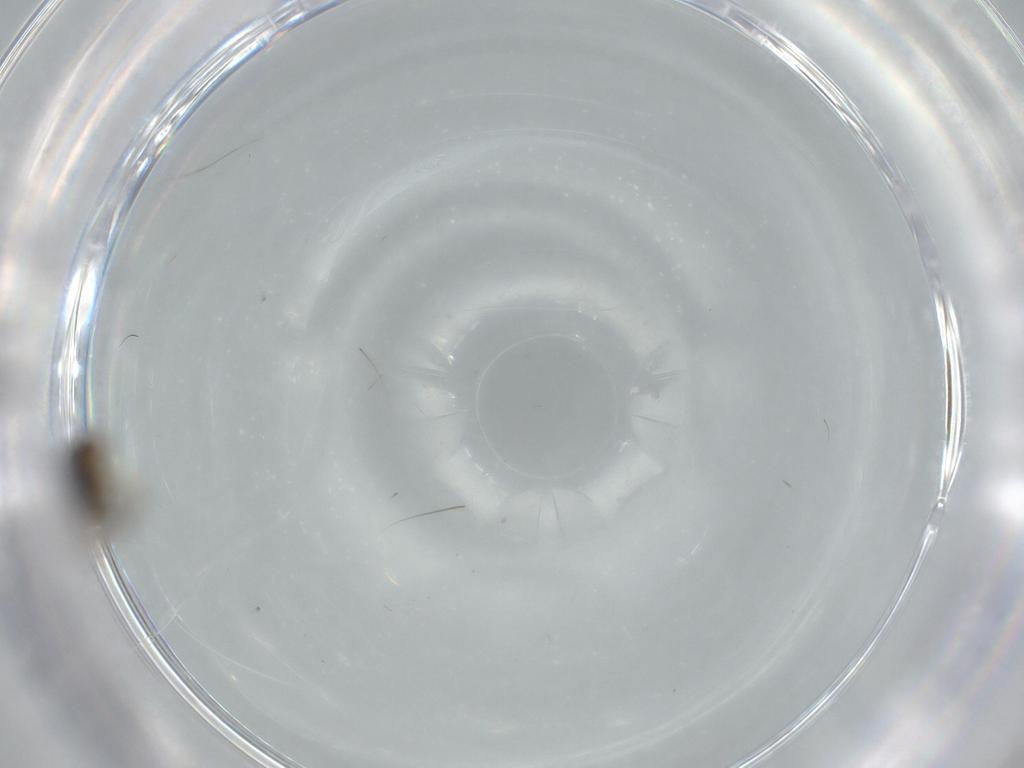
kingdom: Animalia
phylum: Arthropoda
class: Insecta
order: Diptera
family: Phoridae
